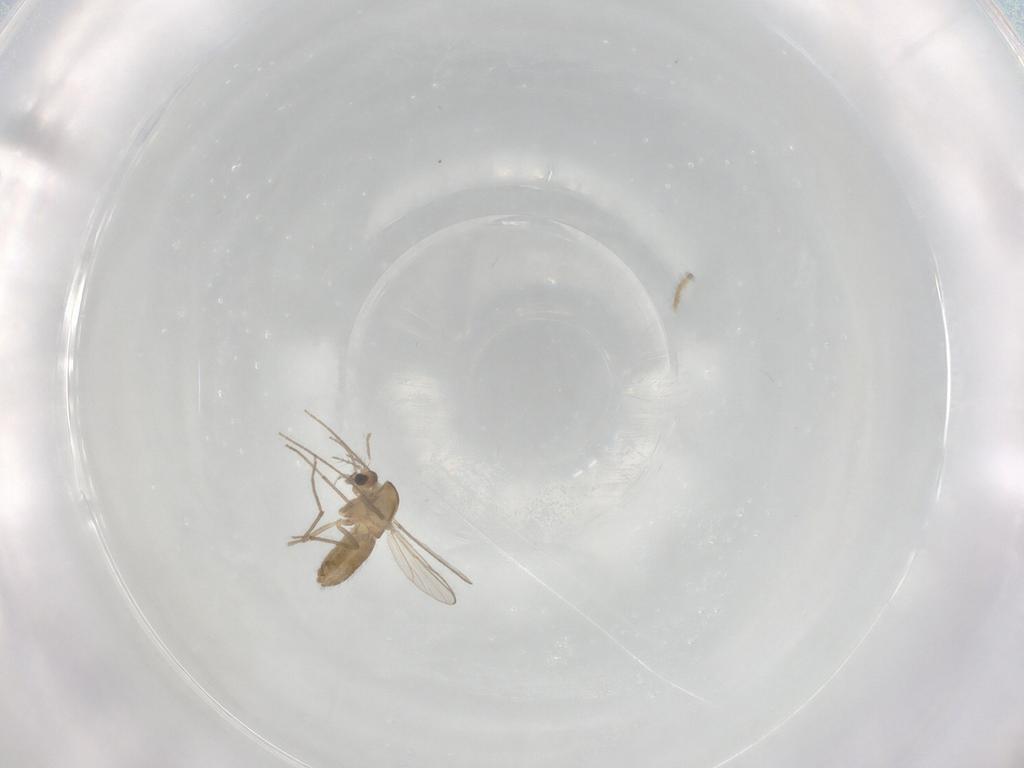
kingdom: Animalia
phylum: Arthropoda
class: Insecta
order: Diptera
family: Chironomidae
